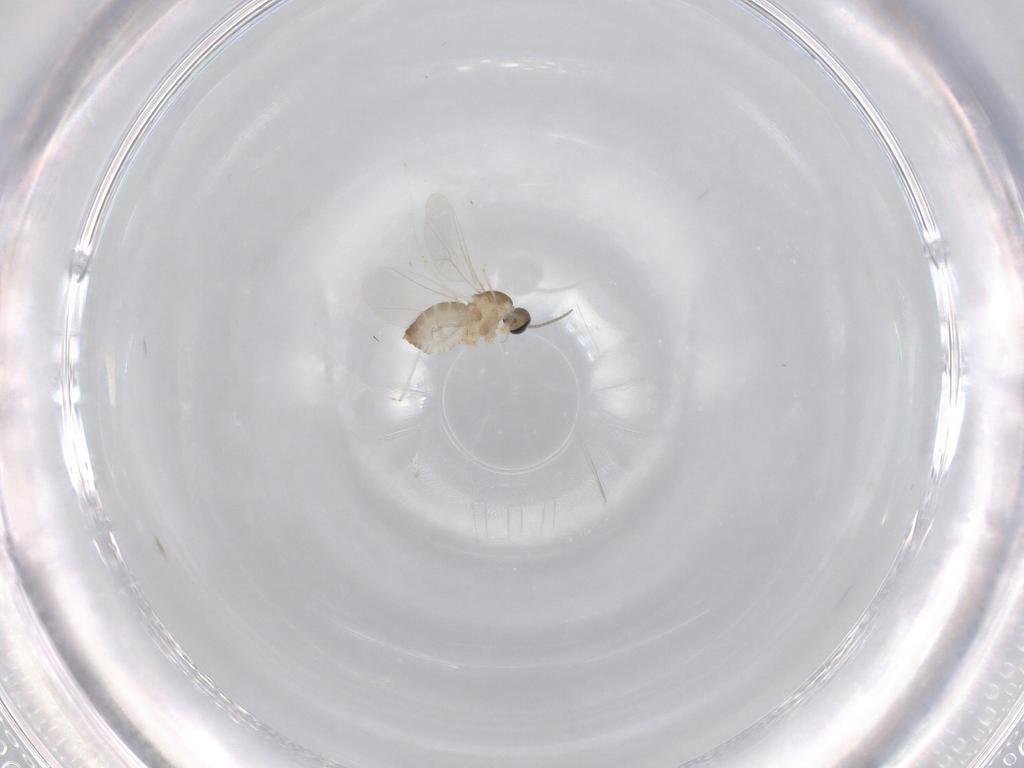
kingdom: Animalia
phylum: Arthropoda
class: Insecta
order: Diptera
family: Cecidomyiidae
